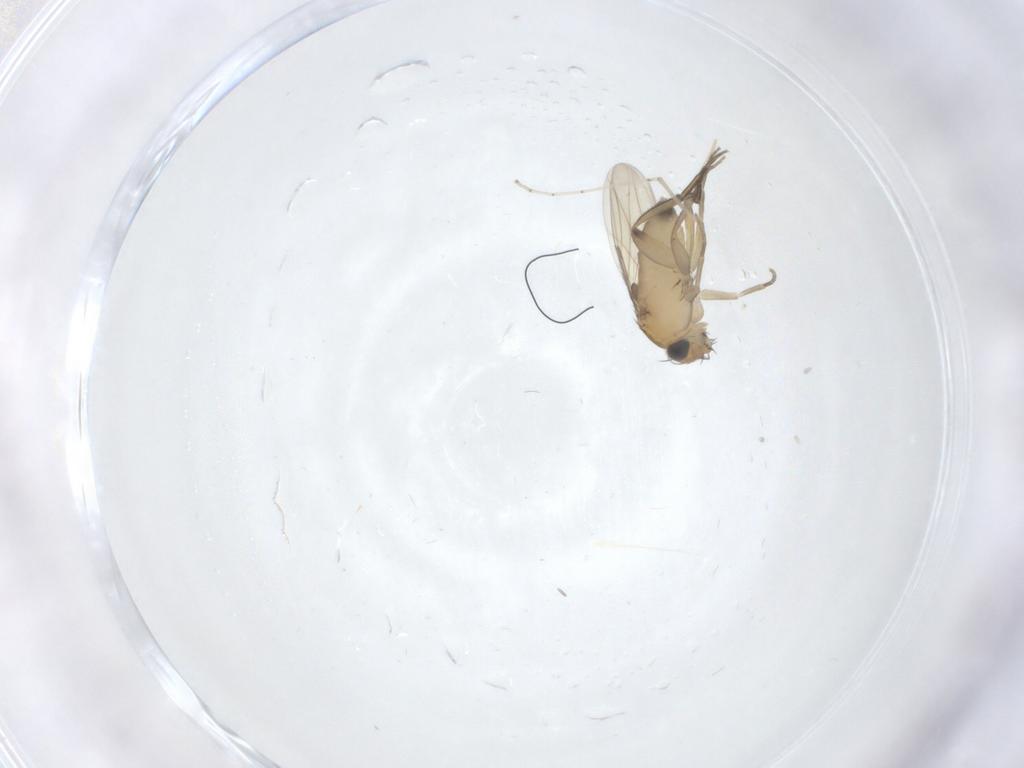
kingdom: Animalia
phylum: Arthropoda
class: Insecta
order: Diptera
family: Phoridae
